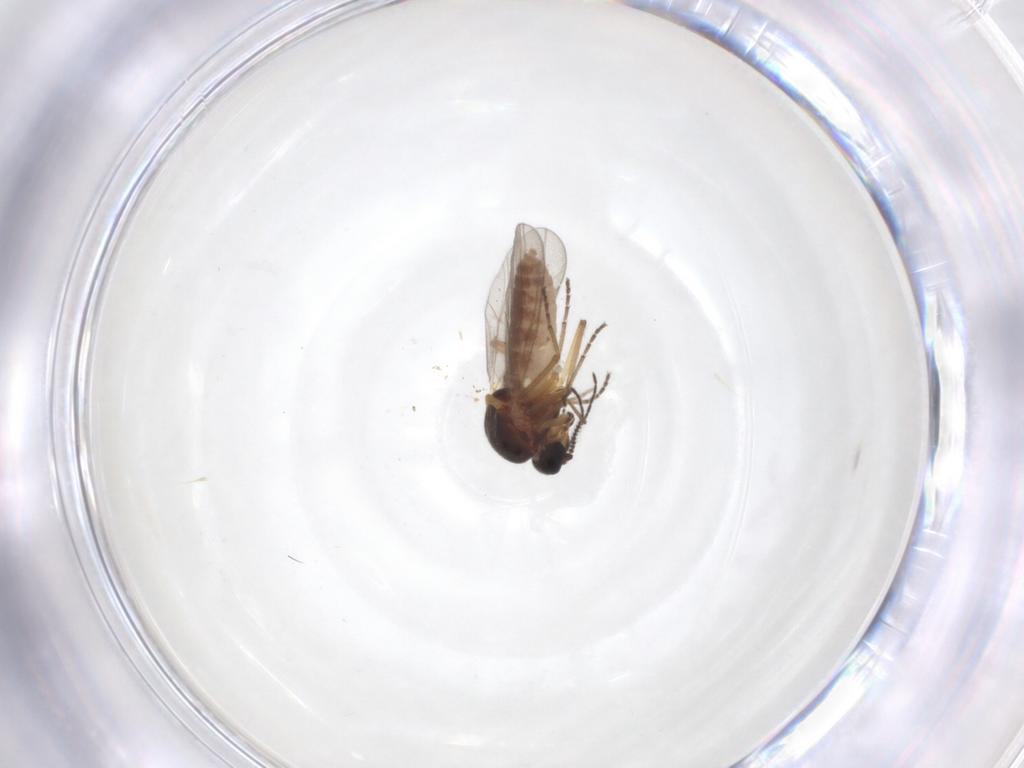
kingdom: Animalia
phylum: Arthropoda
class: Insecta
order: Diptera
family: Ceratopogonidae
